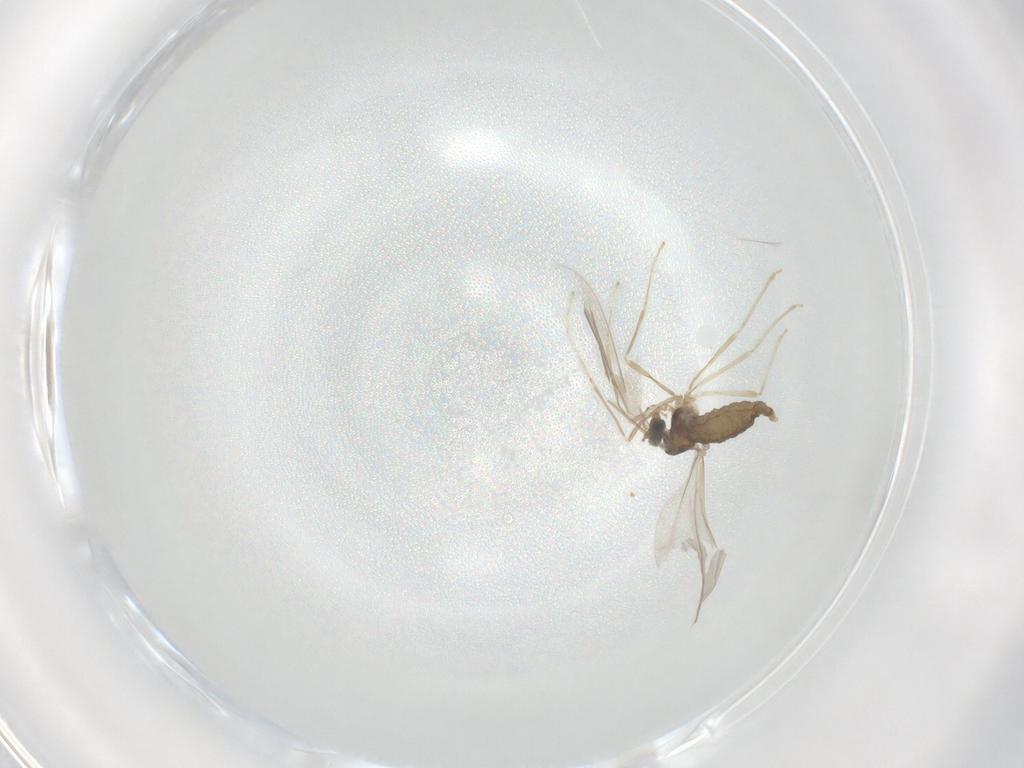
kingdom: Animalia
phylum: Arthropoda
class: Insecta
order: Diptera
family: Cecidomyiidae
